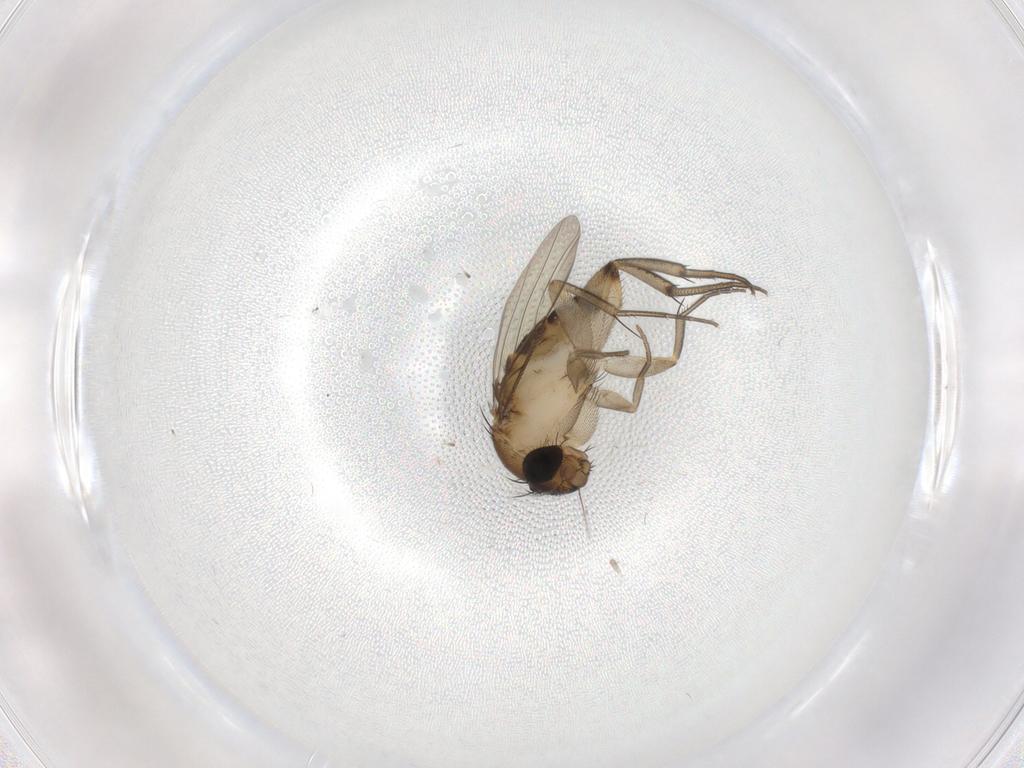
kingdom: Animalia
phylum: Arthropoda
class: Insecta
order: Diptera
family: Phoridae
